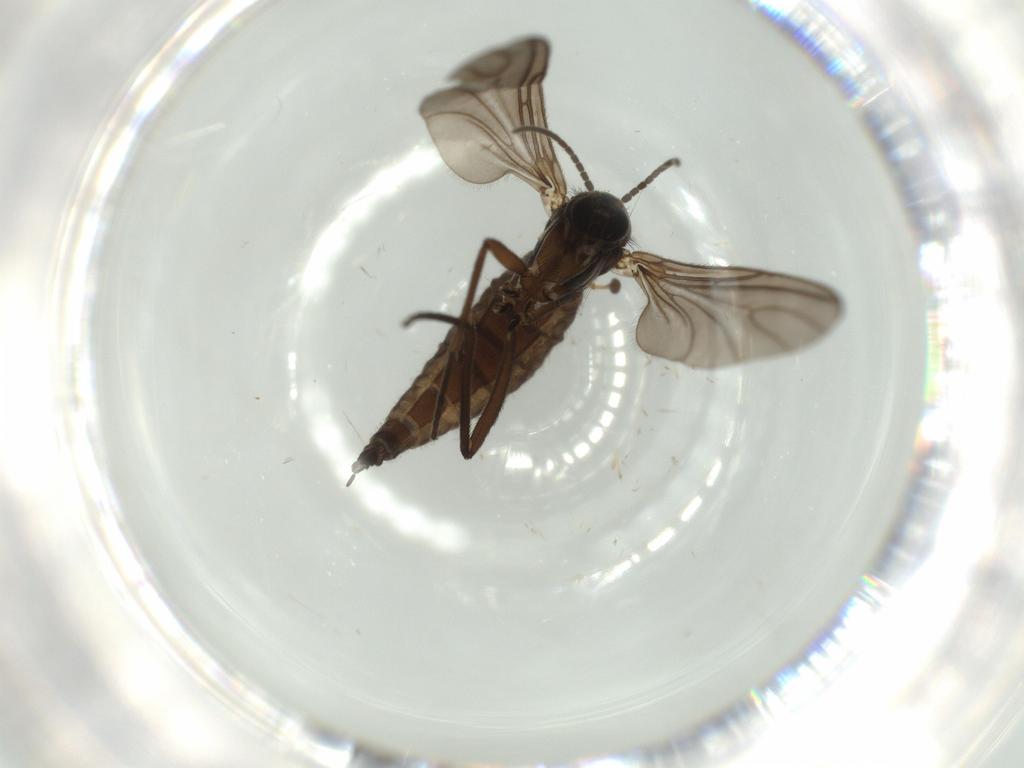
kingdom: Animalia
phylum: Arthropoda
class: Insecta
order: Diptera
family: Sciaridae
